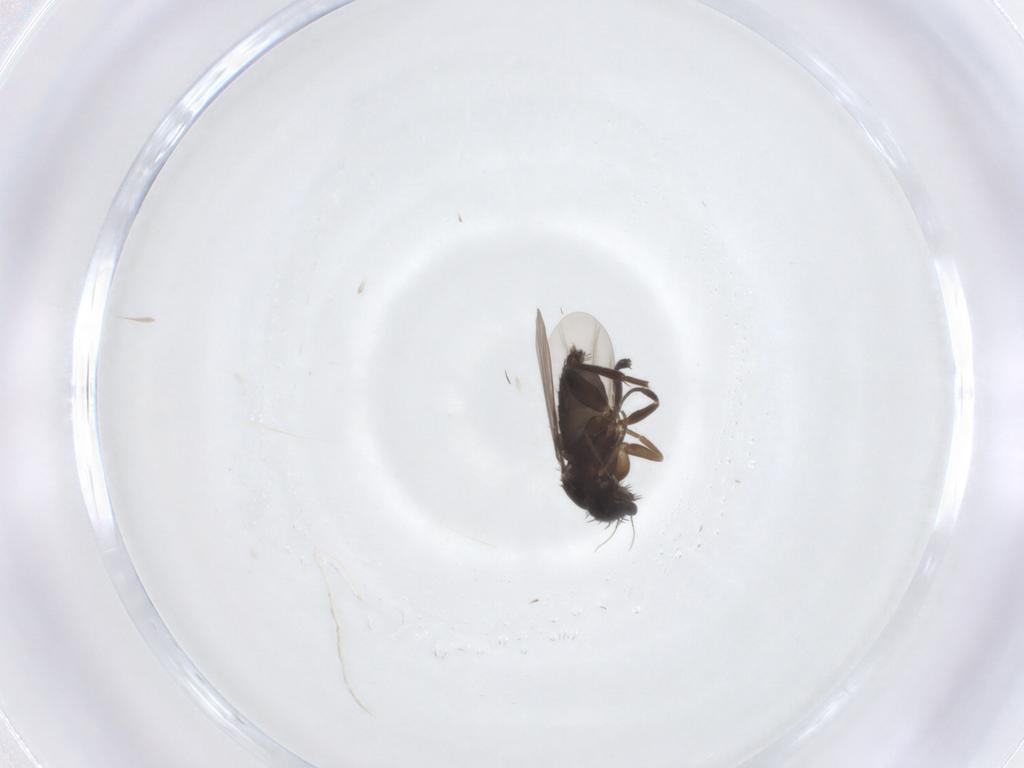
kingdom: Animalia
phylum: Arthropoda
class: Insecta
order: Diptera
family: Phoridae
